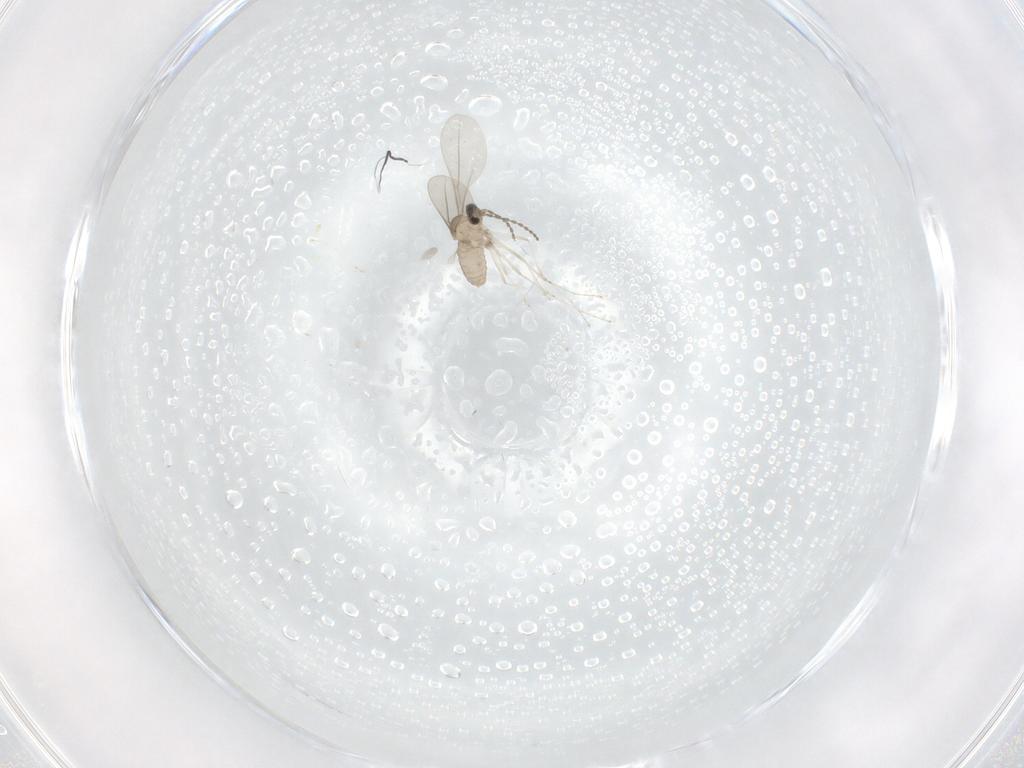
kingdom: Animalia
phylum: Arthropoda
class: Insecta
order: Diptera
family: Cecidomyiidae
